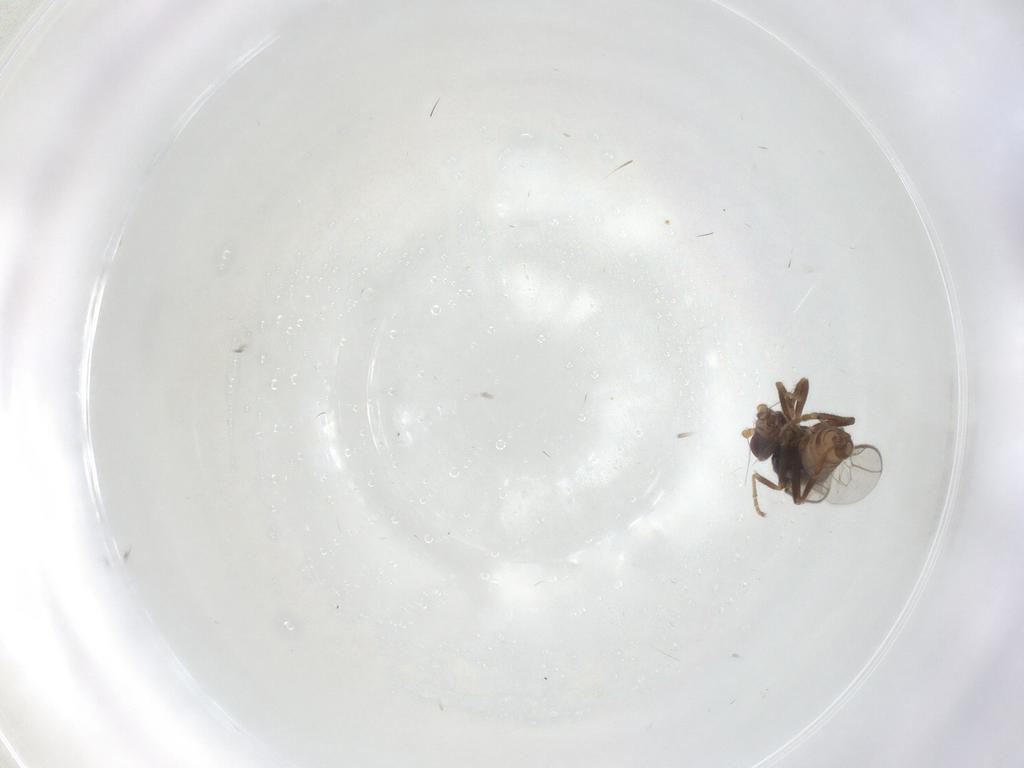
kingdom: Animalia
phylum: Arthropoda
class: Insecta
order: Diptera
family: Sphaeroceridae
